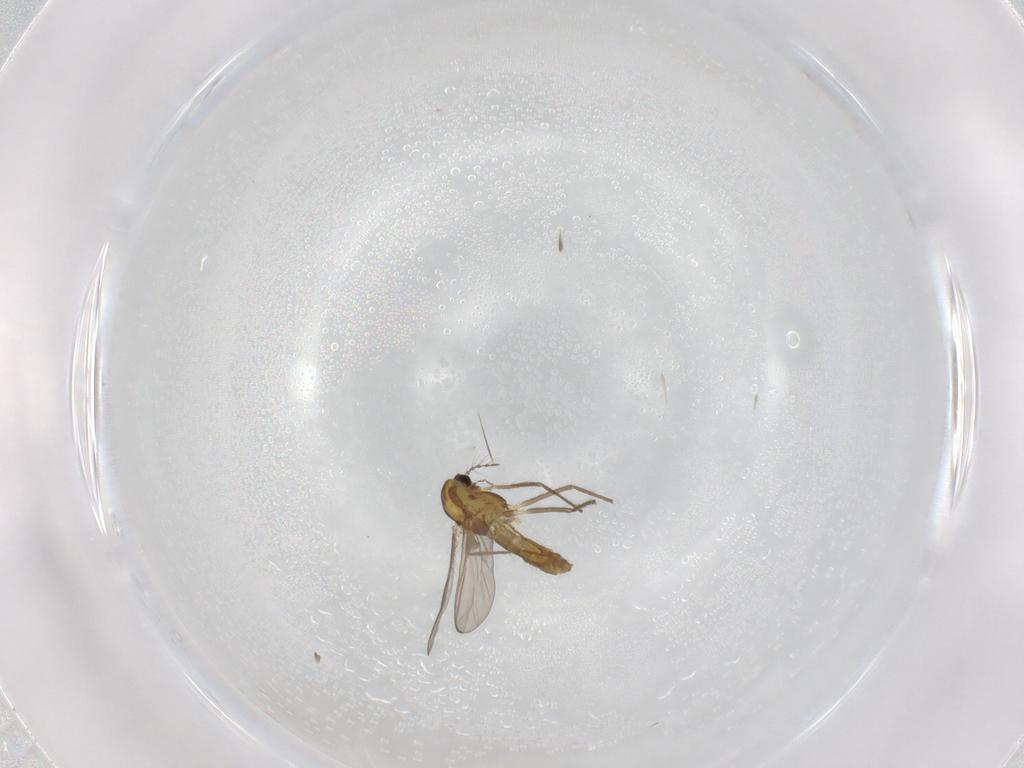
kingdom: Animalia
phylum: Arthropoda
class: Insecta
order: Diptera
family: Chironomidae
